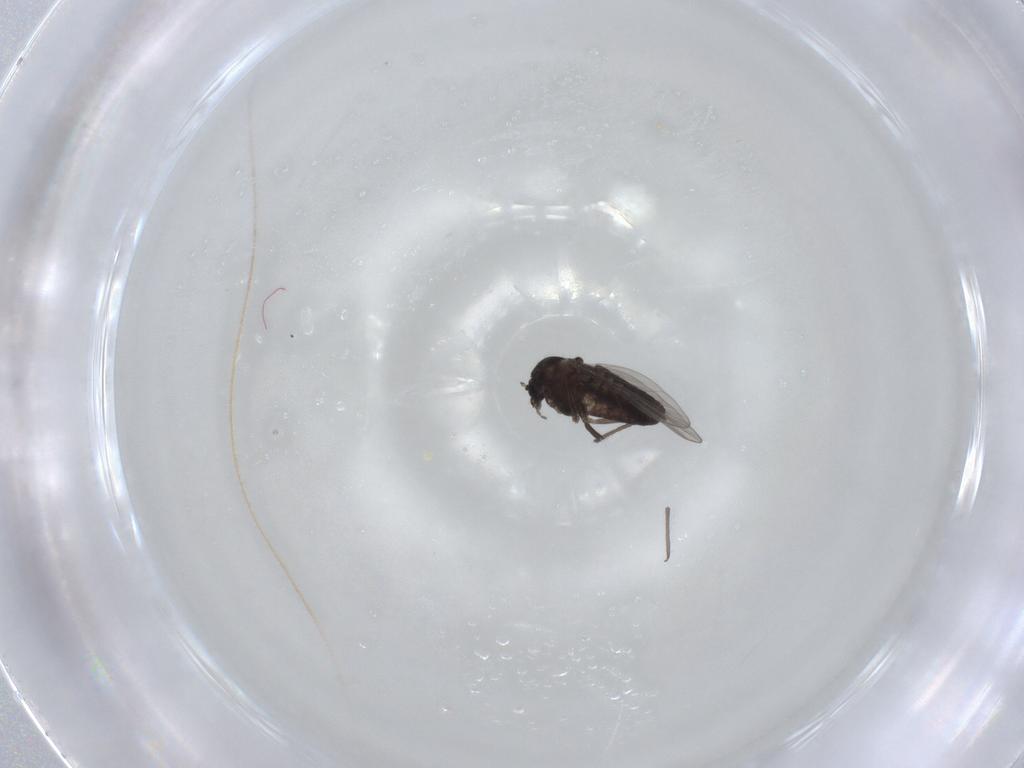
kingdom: Animalia
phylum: Arthropoda
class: Insecta
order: Diptera
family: Chironomidae
